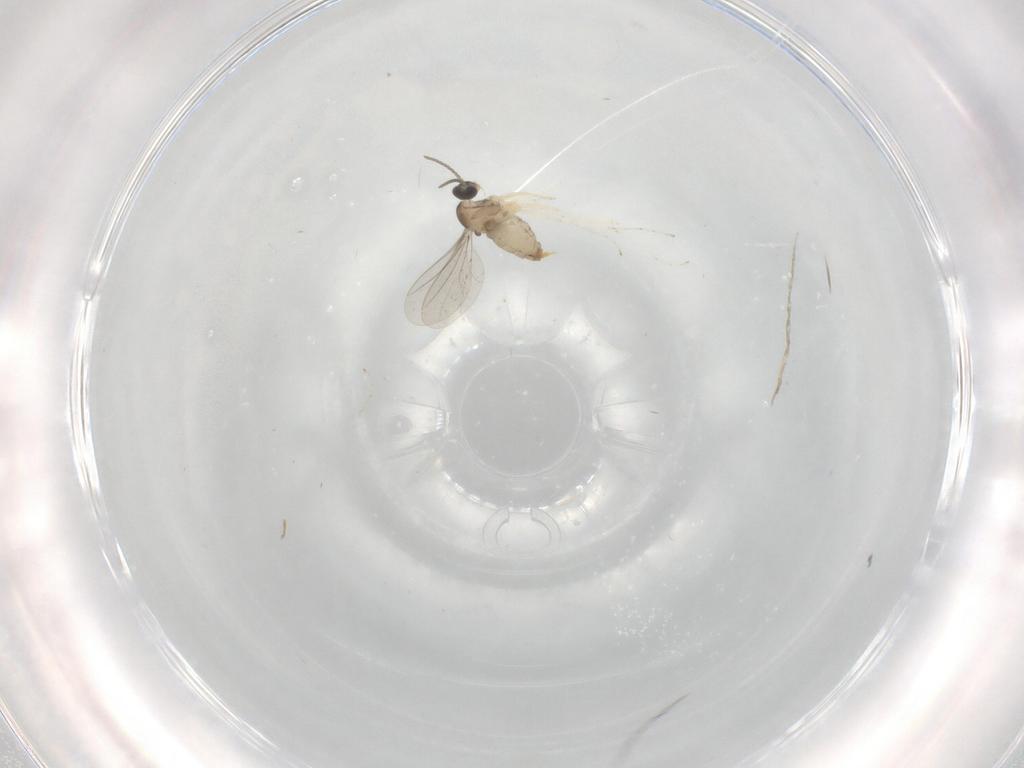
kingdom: Animalia
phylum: Arthropoda
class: Insecta
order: Diptera
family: Cecidomyiidae
